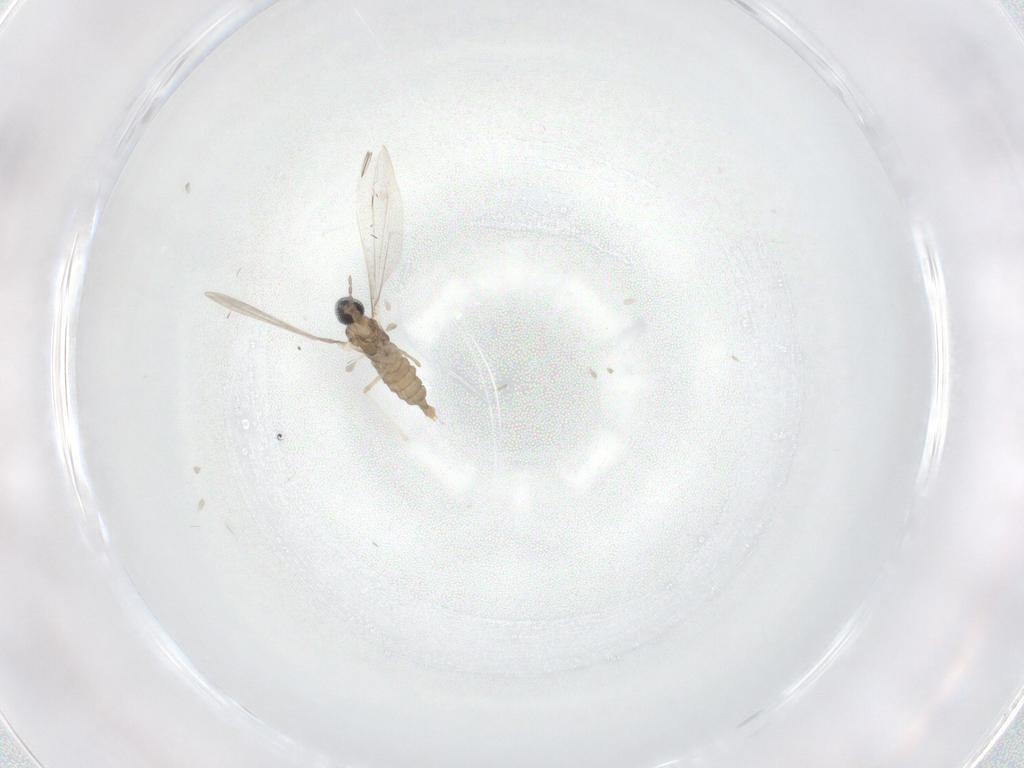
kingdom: Animalia
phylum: Arthropoda
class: Insecta
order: Diptera
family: Cecidomyiidae
